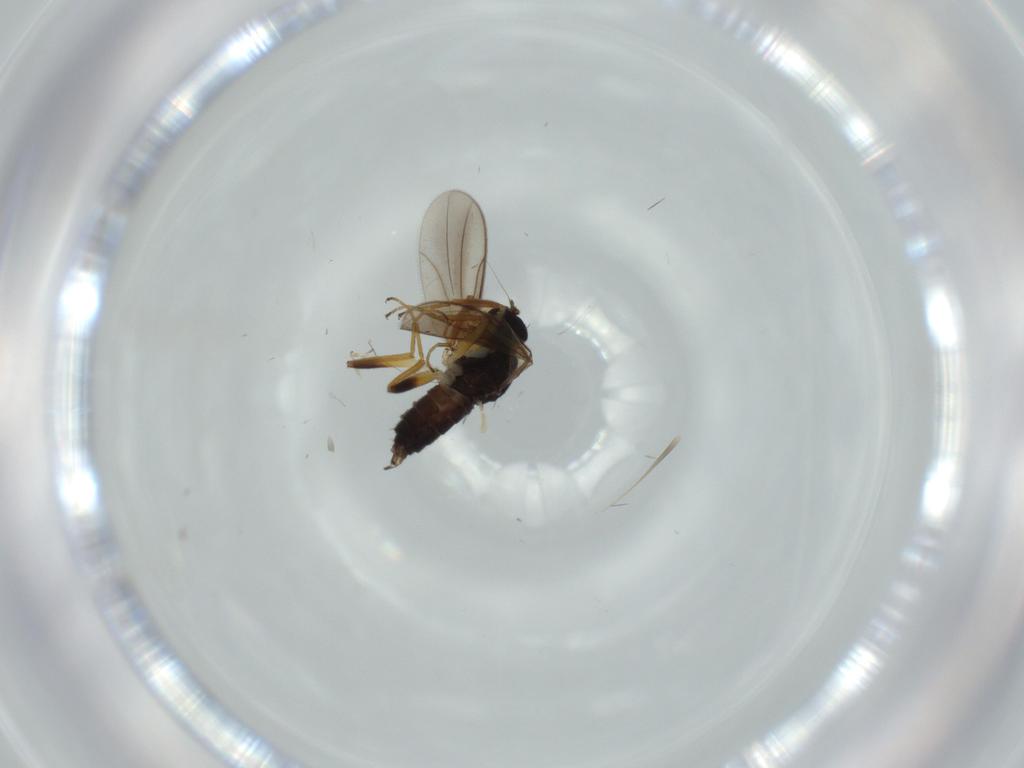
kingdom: Animalia
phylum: Arthropoda
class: Insecta
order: Diptera
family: Hybotidae
